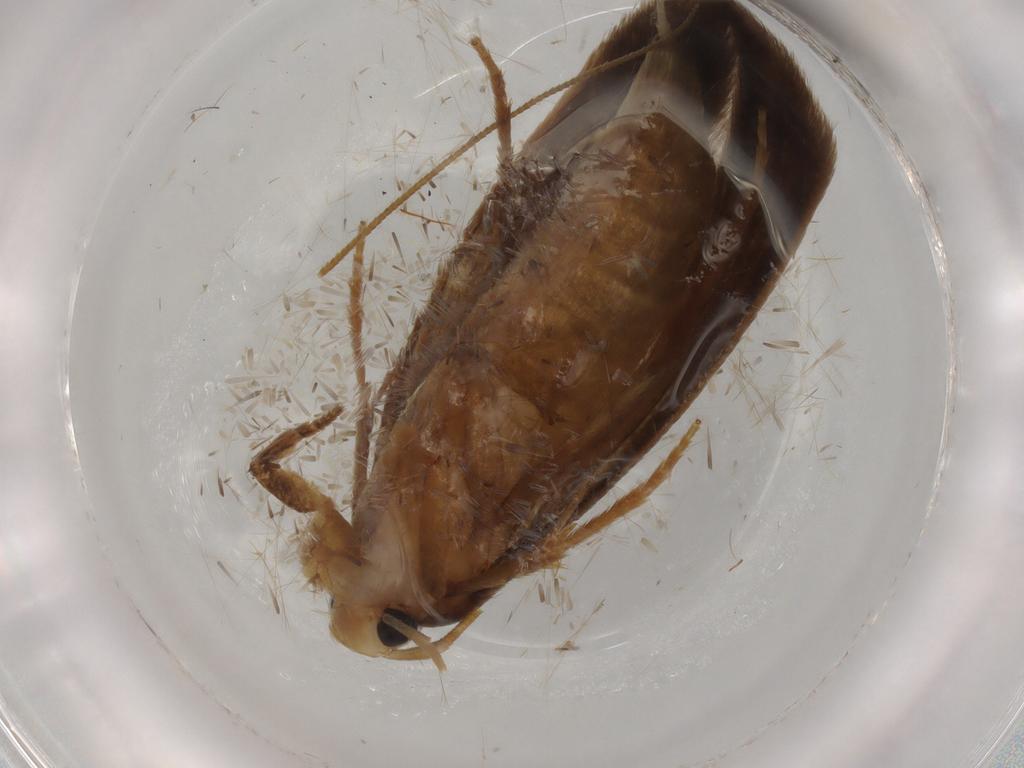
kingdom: Animalia
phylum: Arthropoda
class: Insecta
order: Lepidoptera
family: Tineidae
